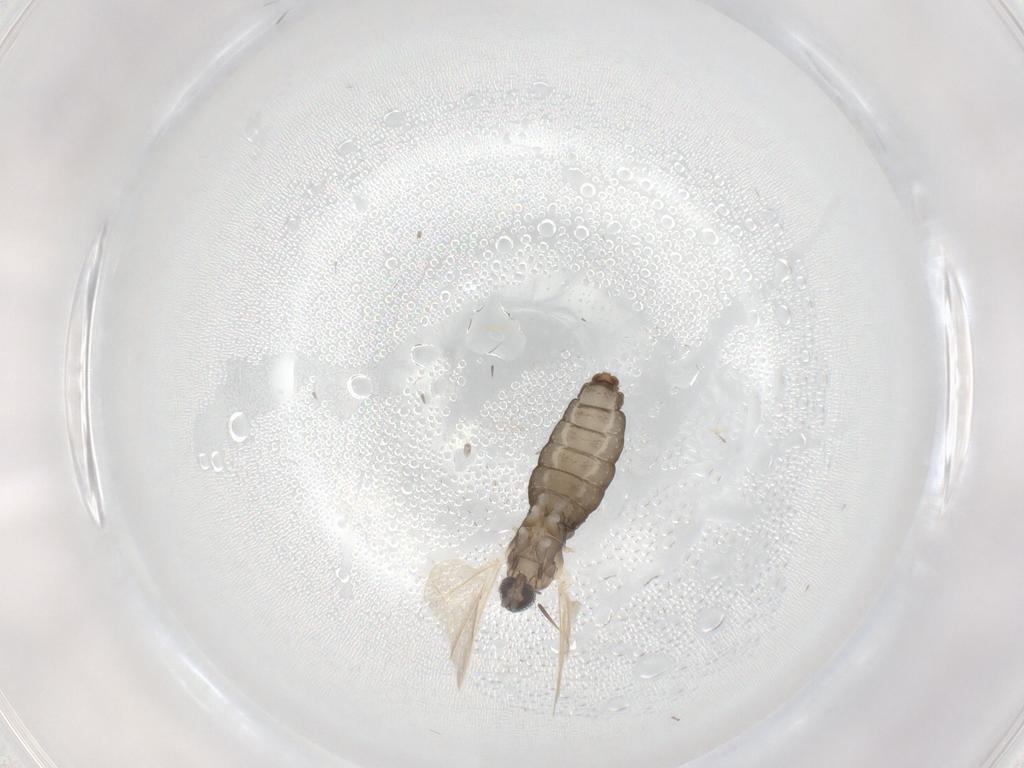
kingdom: Animalia
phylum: Arthropoda
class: Insecta
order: Diptera
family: Cecidomyiidae
